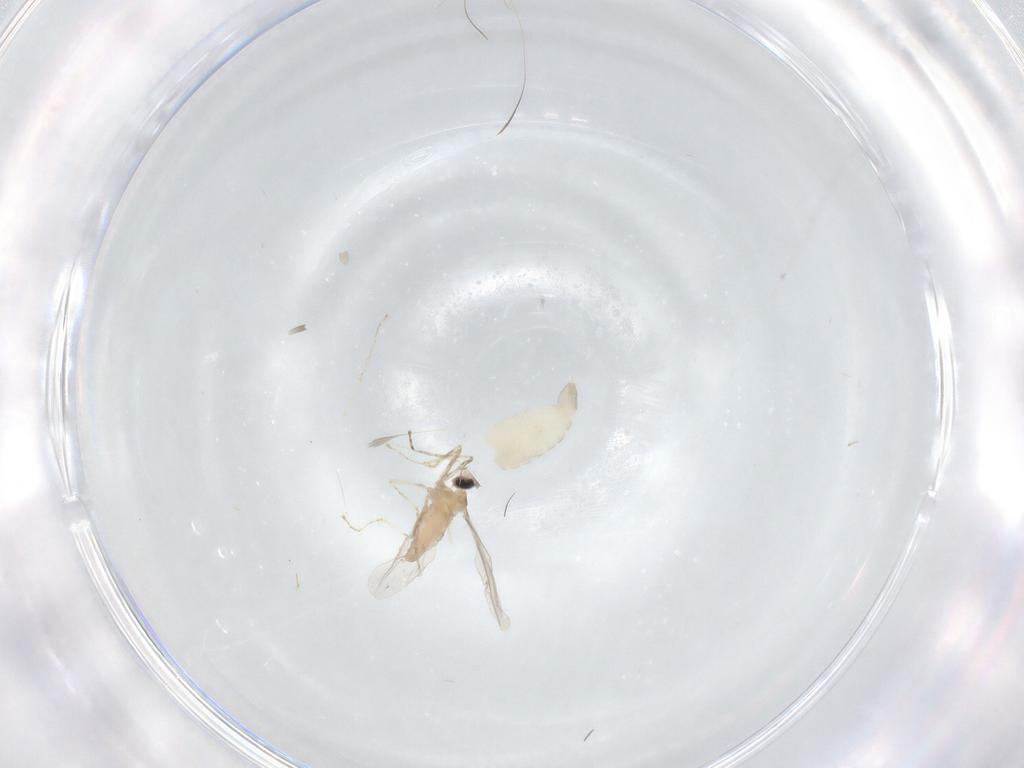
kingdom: Animalia
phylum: Arthropoda
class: Insecta
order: Diptera
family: Cecidomyiidae
